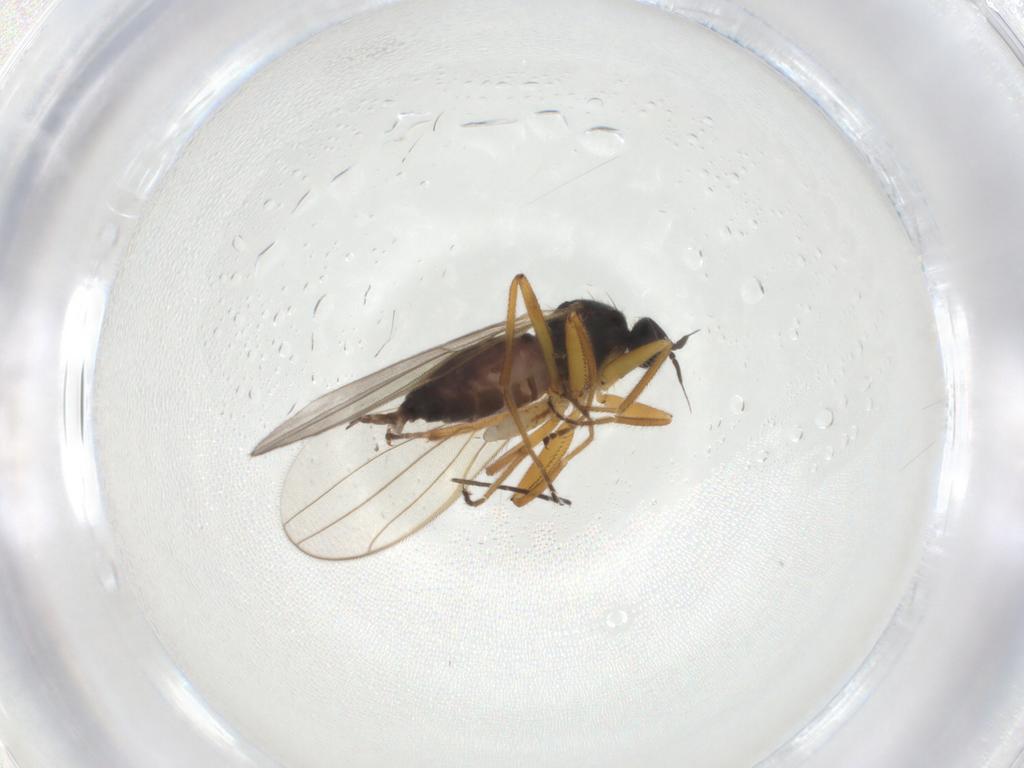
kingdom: Animalia
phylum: Arthropoda
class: Insecta
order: Diptera
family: Hybotidae
